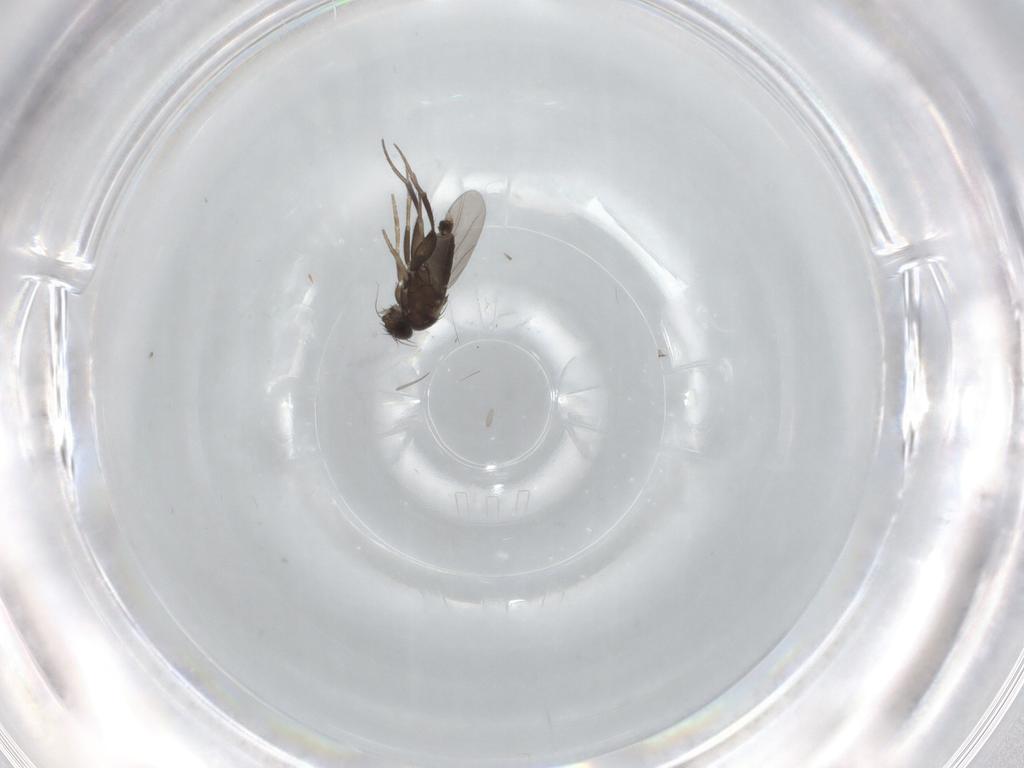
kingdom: Animalia
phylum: Arthropoda
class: Insecta
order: Diptera
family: Phoridae
